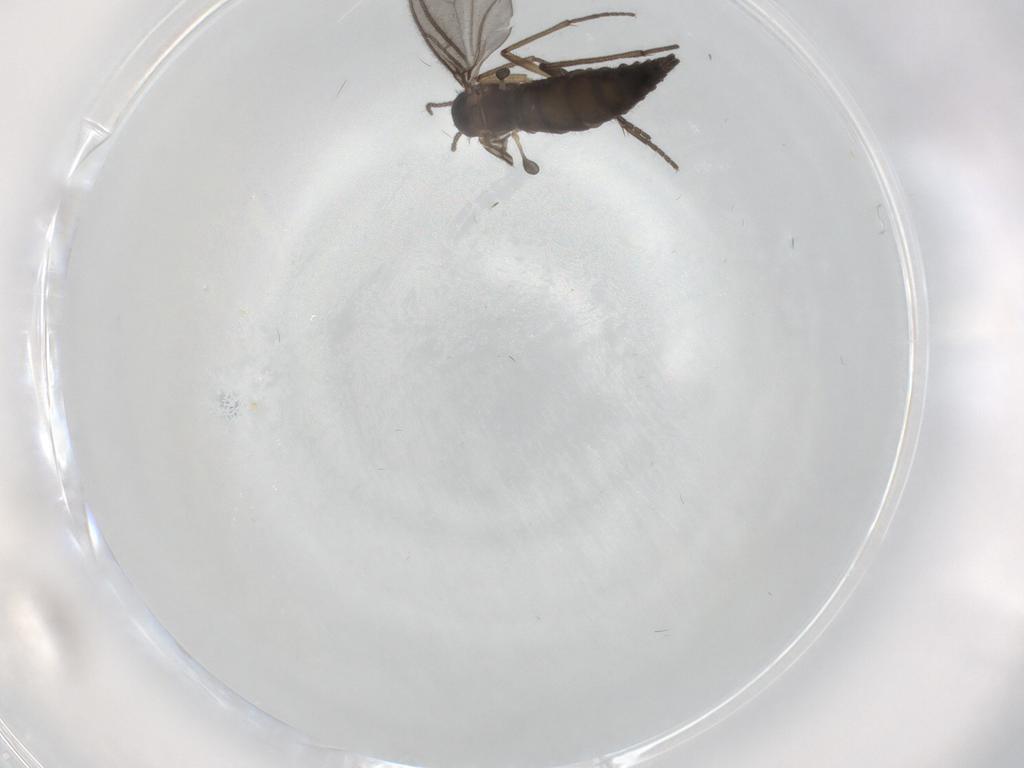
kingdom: Animalia
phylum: Arthropoda
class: Insecta
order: Diptera
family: Sciaridae
